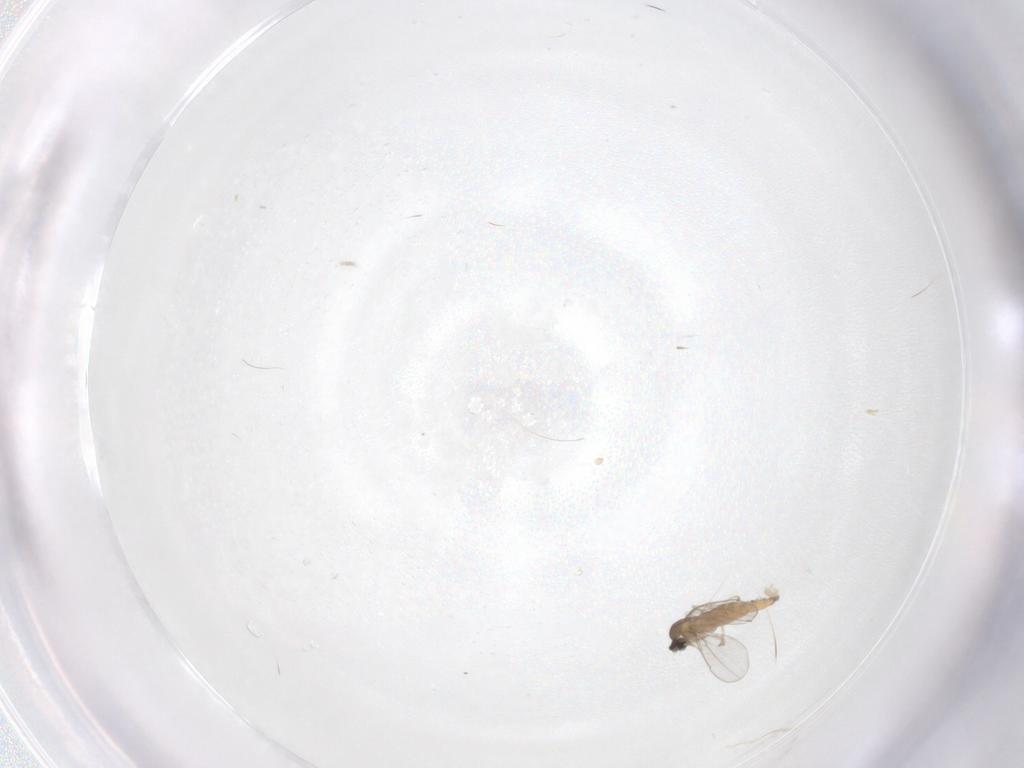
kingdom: Animalia
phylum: Arthropoda
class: Insecta
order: Diptera
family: Cecidomyiidae
